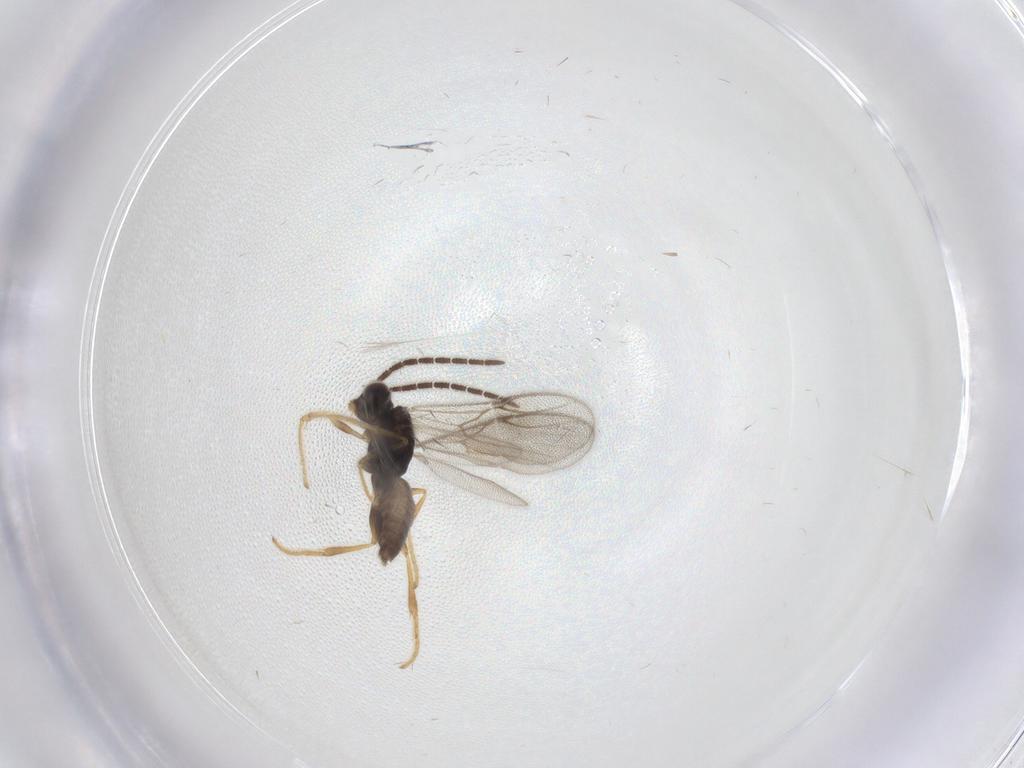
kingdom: Animalia
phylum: Arthropoda
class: Insecta
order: Hymenoptera
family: Dryinidae
